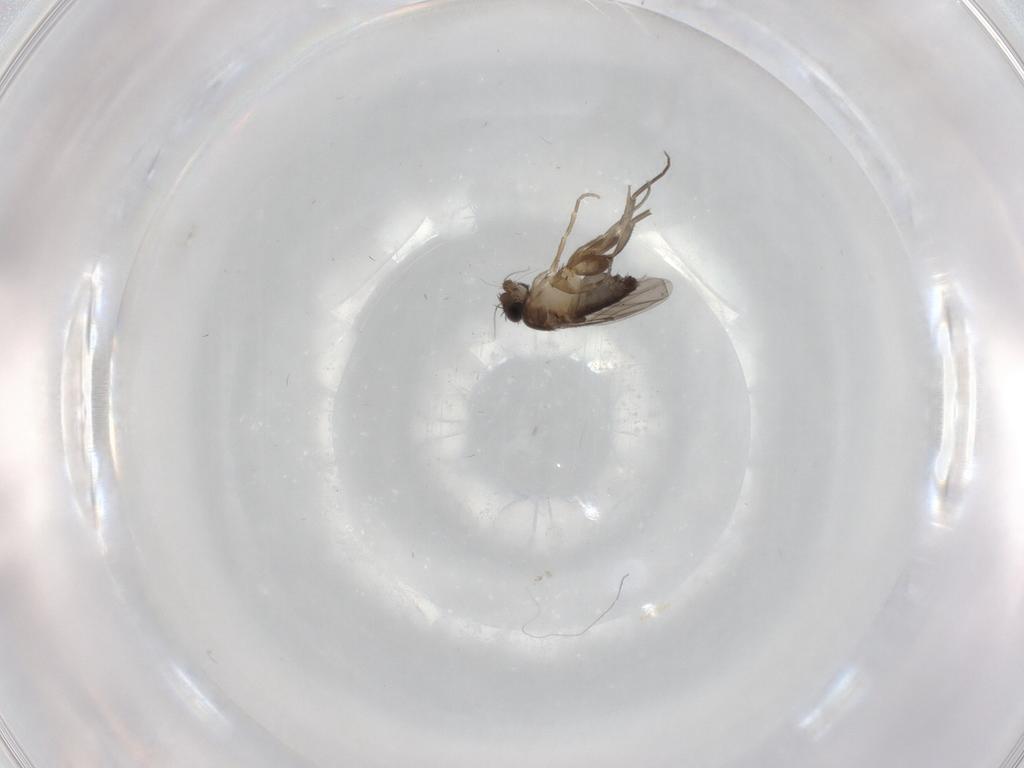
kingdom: Animalia
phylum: Arthropoda
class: Insecta
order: Diptera
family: Phoridae
